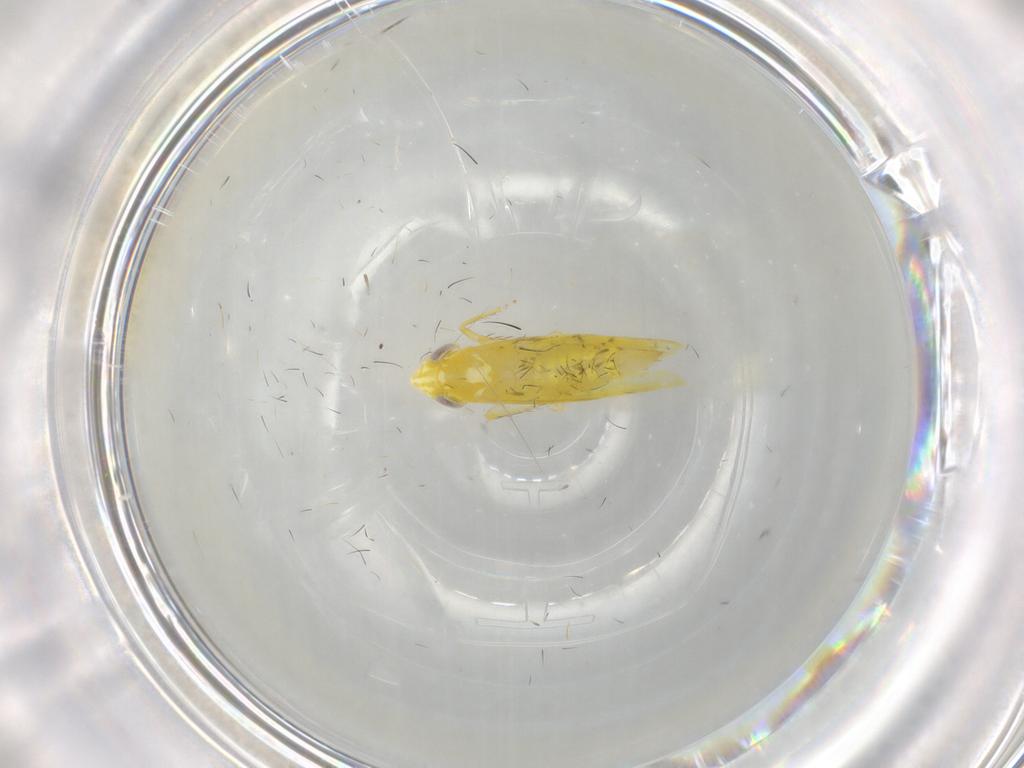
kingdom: Animalia
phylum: Arthropoda
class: Insecta
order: Hemiptera
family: Cicadellidae
